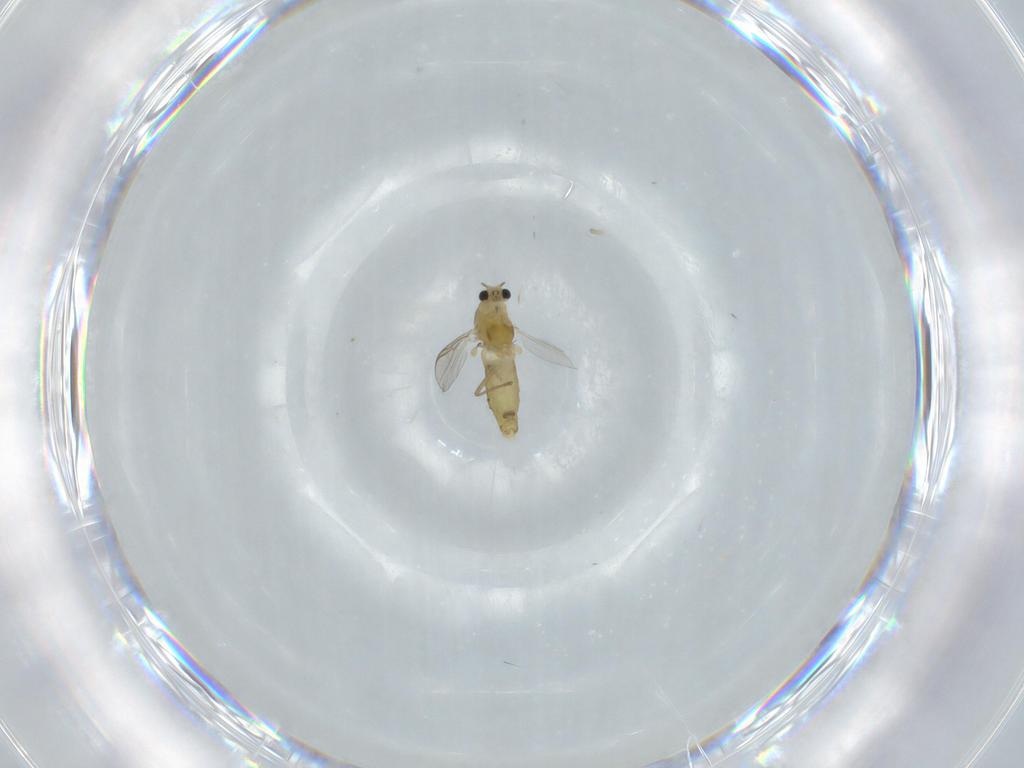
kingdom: Animalia
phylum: Arthropoda
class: Insecta
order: Diptera
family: Chironomidae
